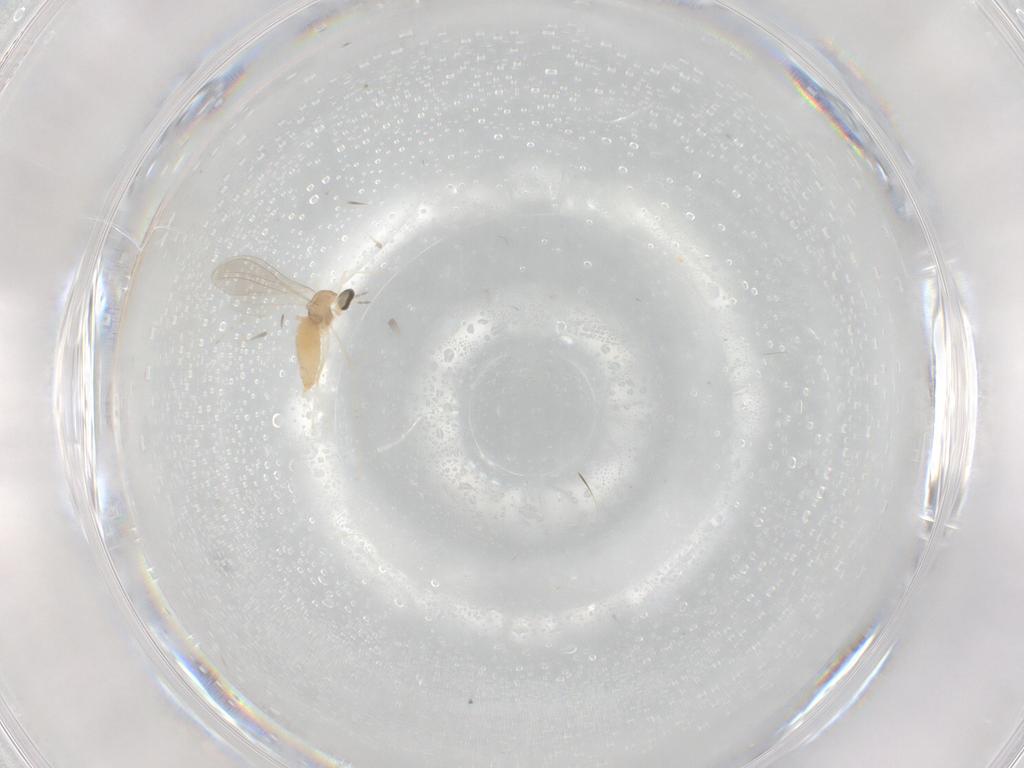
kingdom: Animalia
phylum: Arthropoda
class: Insecta
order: Diptera
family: Cecidomyiidae
